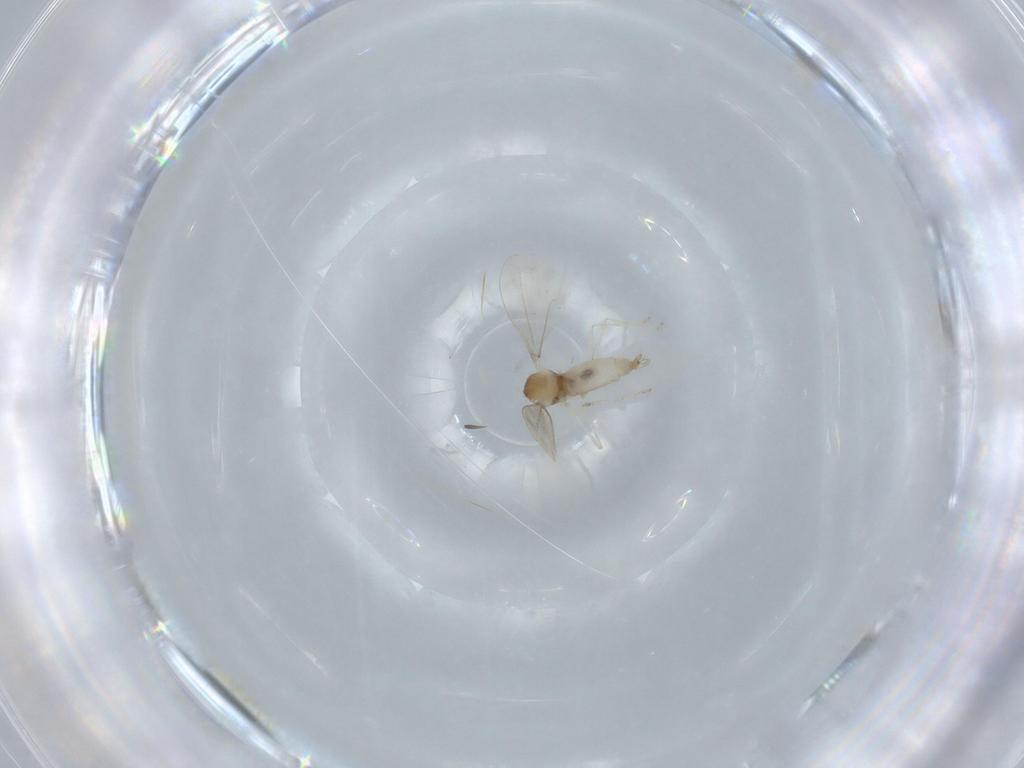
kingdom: Animalia
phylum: Arthropoda
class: Insecta
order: Diptera
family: Cecidomyiidae
